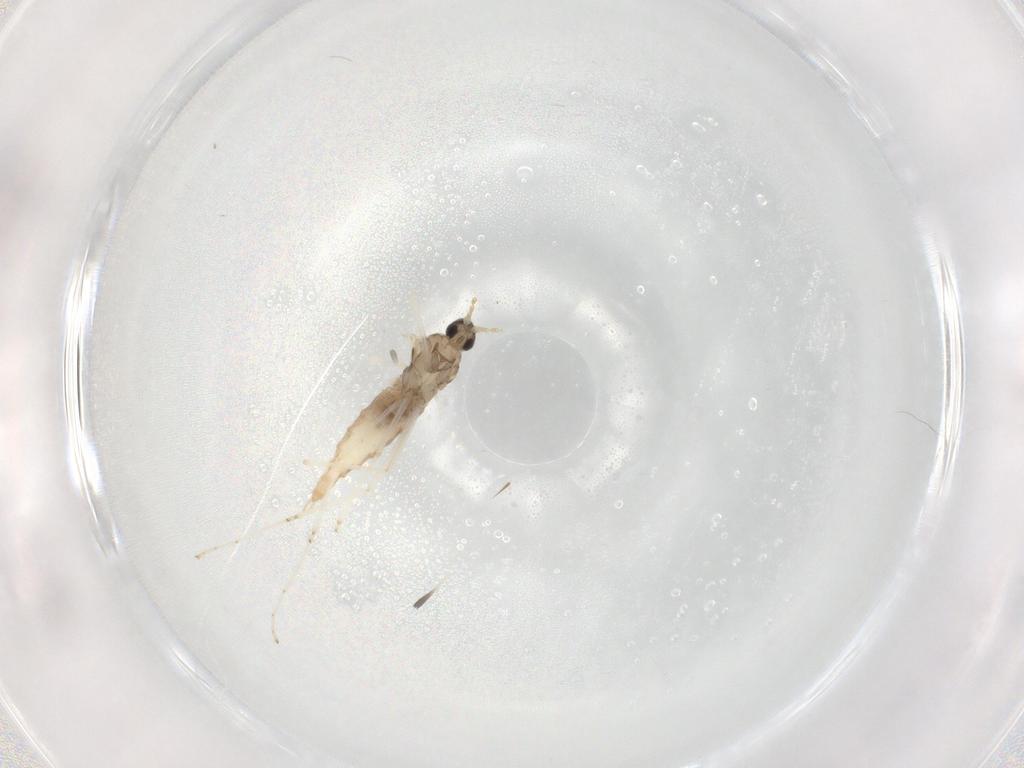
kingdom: Animalia
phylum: Arthropoda
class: Insecta
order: Diptera
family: Cecidomyiidae
